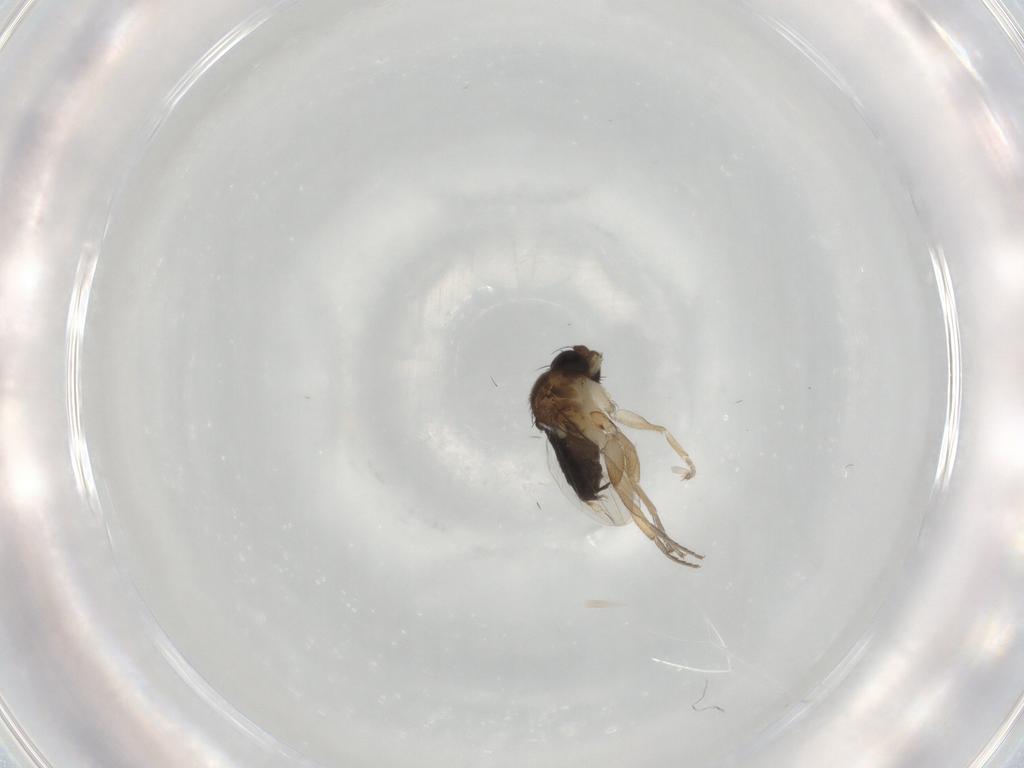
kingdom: Animalia
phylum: Arthropoda
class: Insecta
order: Diptera
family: Phoridae
